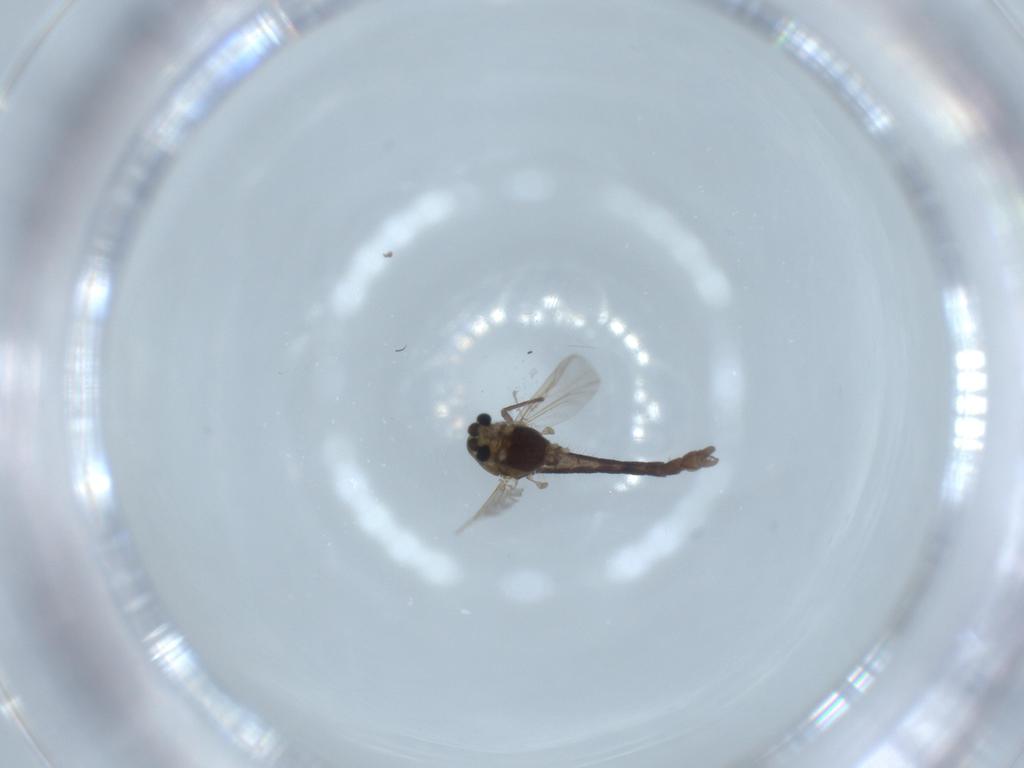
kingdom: Animalia
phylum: Arthropoda
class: Insecta
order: Diptera
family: Chironomidae
